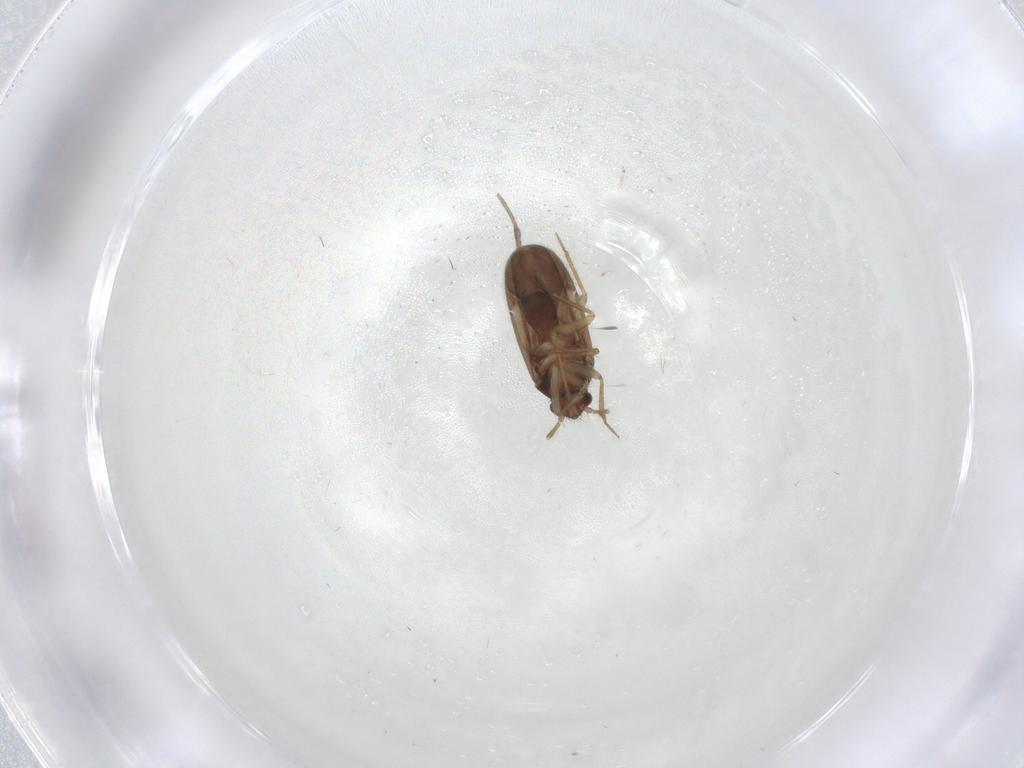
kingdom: Animalia
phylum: Arthropoda
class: Insecta
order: Hemiptera
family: Ceratocombidae
